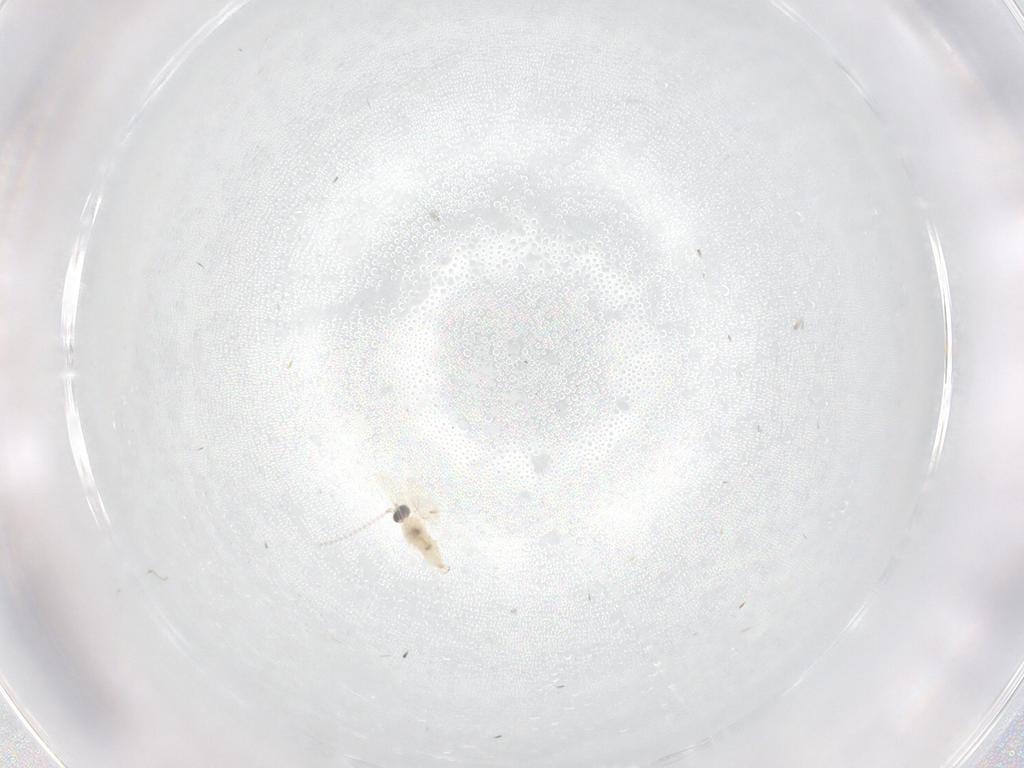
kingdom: Animalia
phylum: Arthropoda
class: Insecta
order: Diptera
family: Cecidomyiidae
